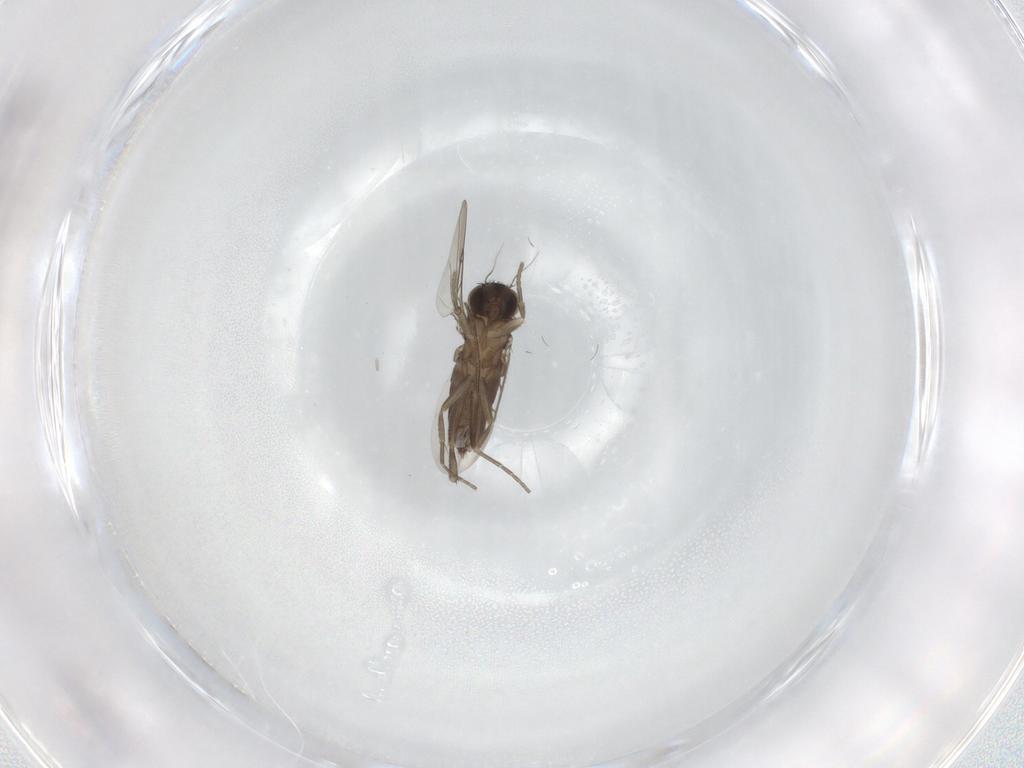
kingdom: Animalia
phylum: Arthropoda
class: Insecta
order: Diptera
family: Phoridae
